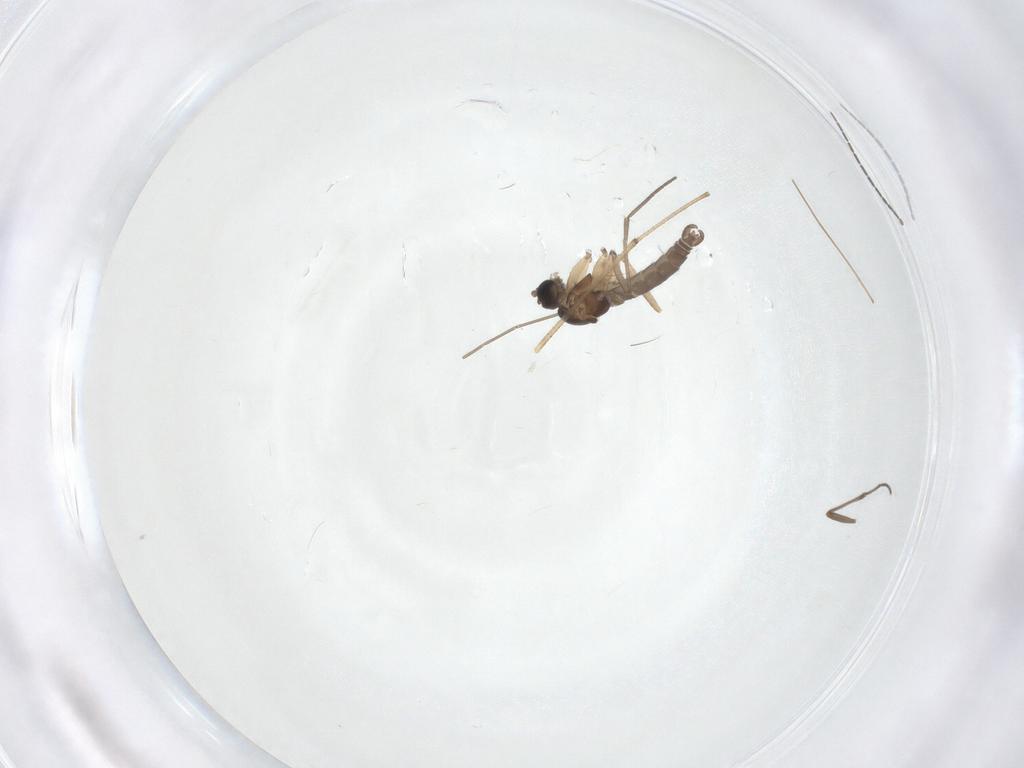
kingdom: Animalia
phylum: Arthropoda
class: Insecta
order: Diptera
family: Sciaridae
